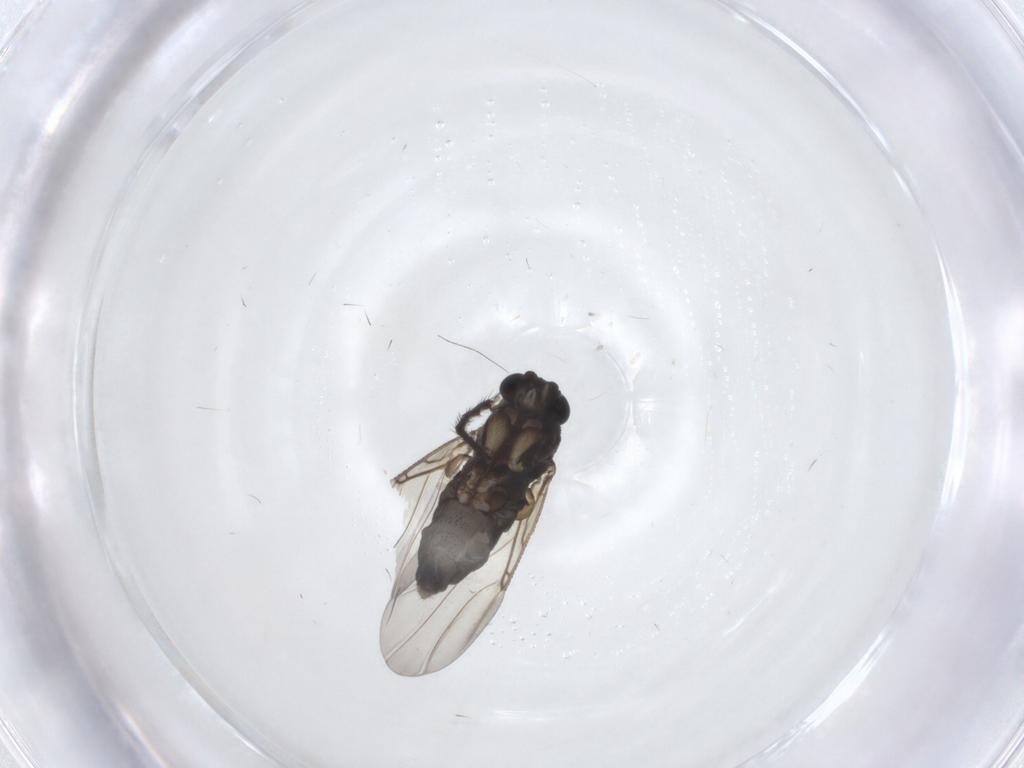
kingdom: Animalia
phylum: Arthropoda
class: Insecta
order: Diptera
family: Phoridae
